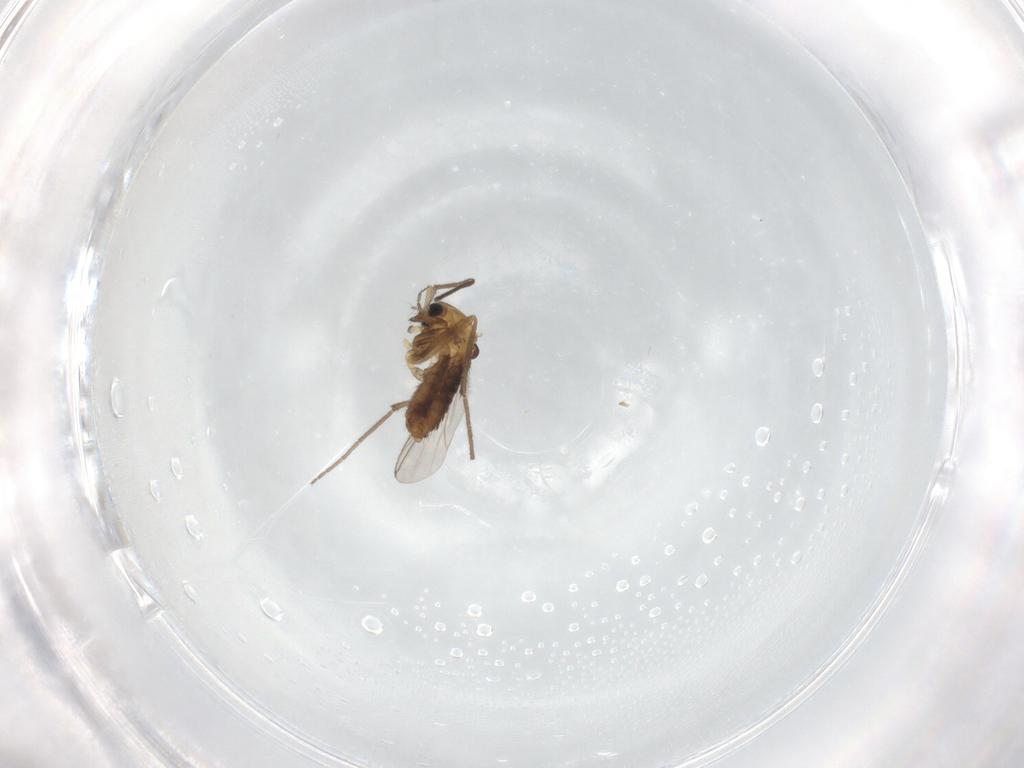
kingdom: Animalia
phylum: Arthropoda
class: Insecta
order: Diptera
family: Chironomidae
